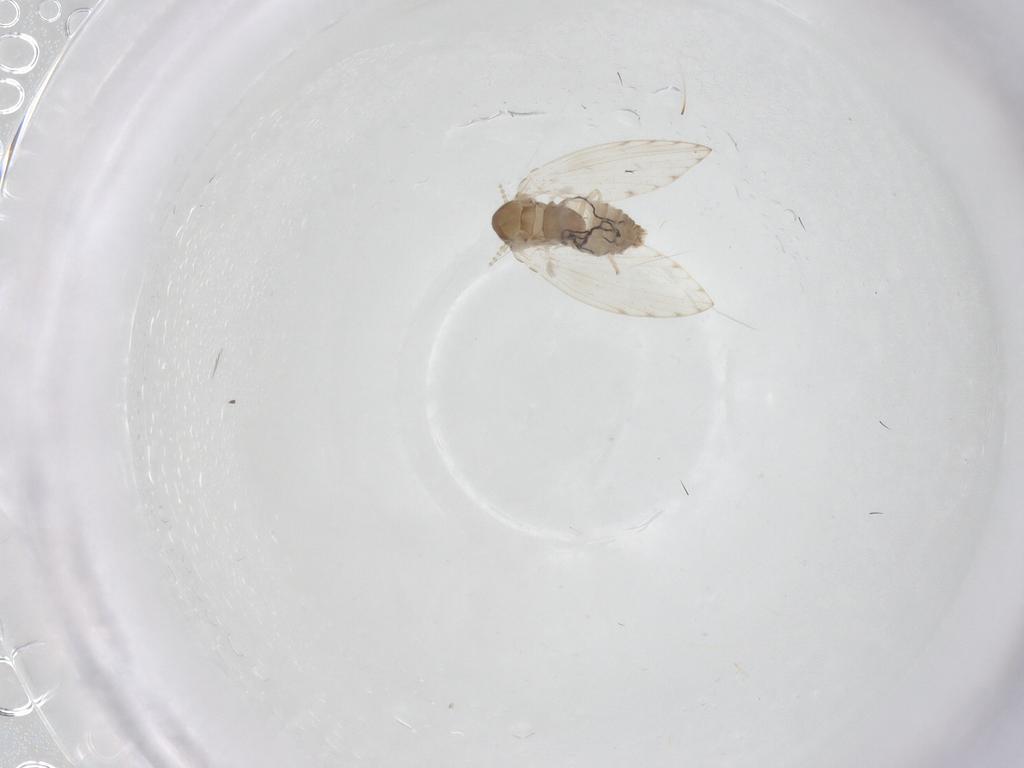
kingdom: Animalia
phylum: Arthropoda
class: Insecta
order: Diptera
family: Psychodidae
